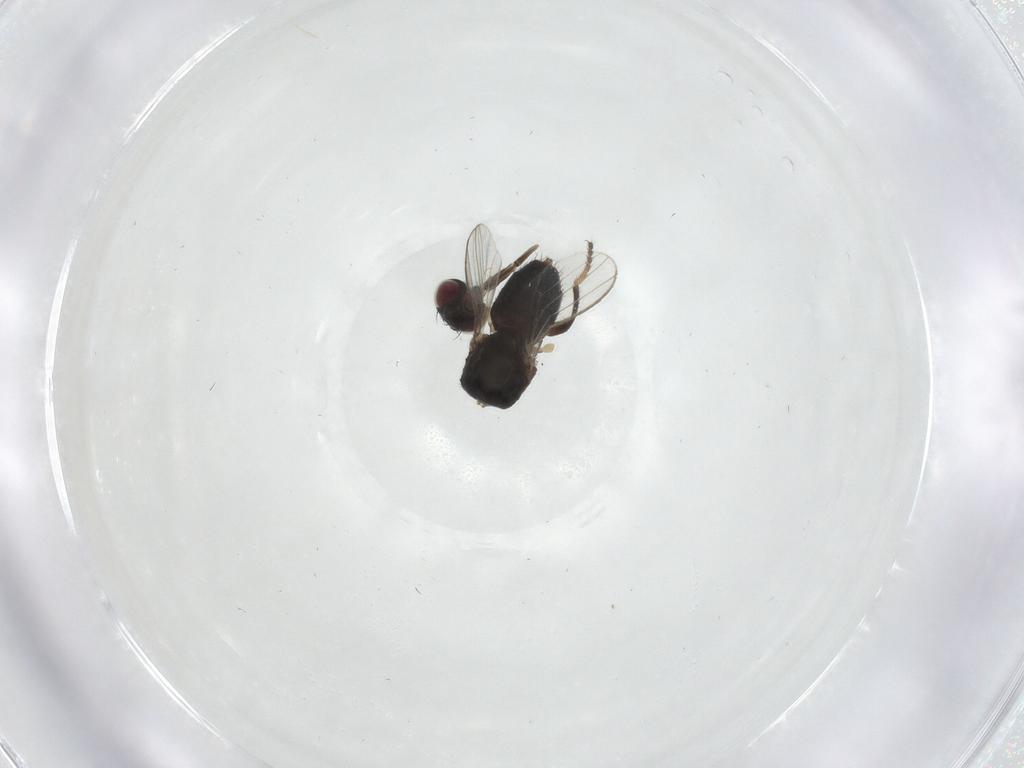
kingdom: Animalia
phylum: Arthropoda
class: Insecta
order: Diptera
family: Milichiidae
